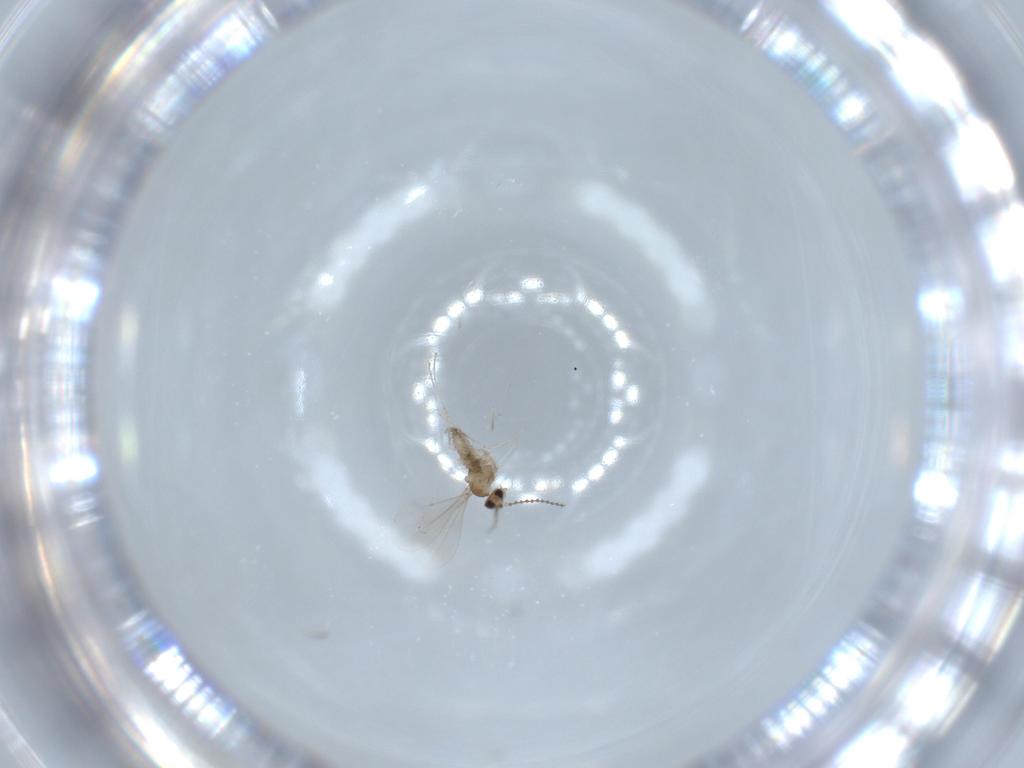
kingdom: Animalia
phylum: Arthropoda
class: Insecta
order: Diptera
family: Cecidomyiidae
